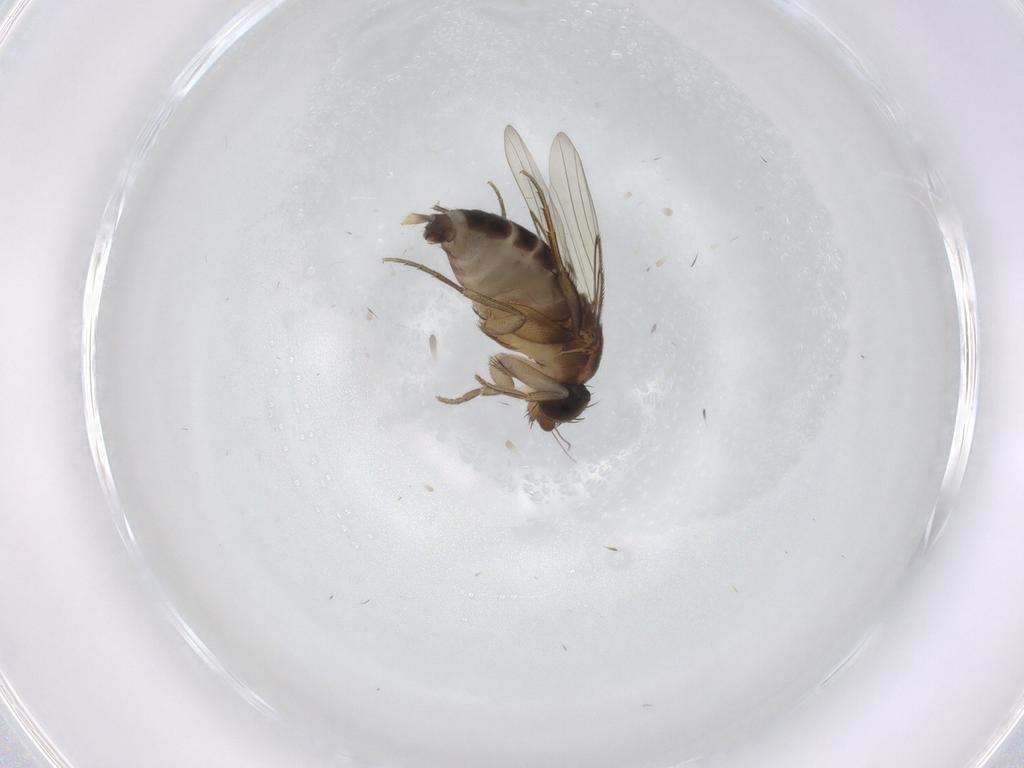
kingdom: Animalia
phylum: Arthropoda
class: Insecta
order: Diptera
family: Phoridae
